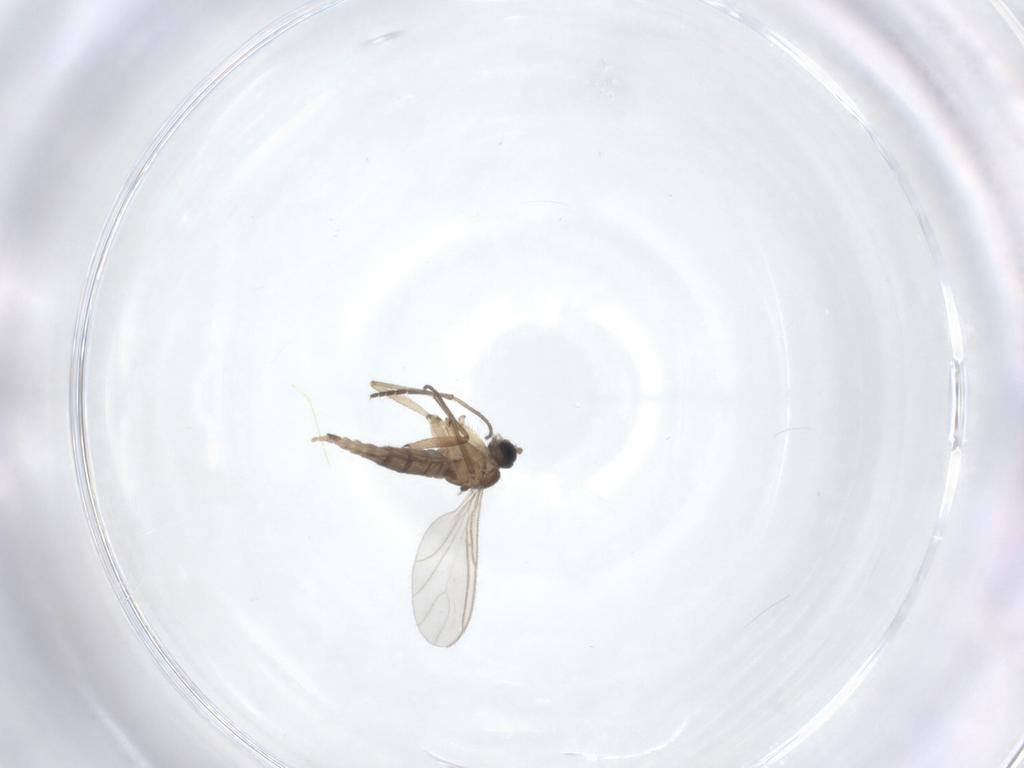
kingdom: Animalia
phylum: Arthropoda
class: Insecta
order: Diptera
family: Sciaridae
